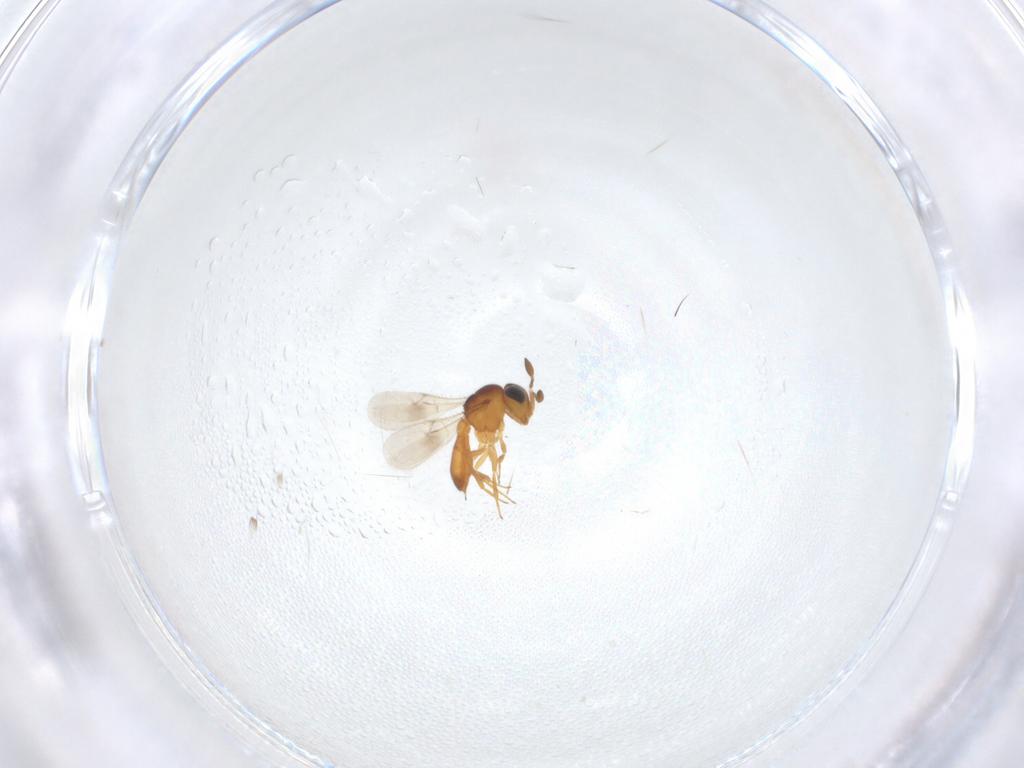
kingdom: Animalia
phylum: Arthropoda
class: Insecta
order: Hymenoptera
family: Scelionidae
